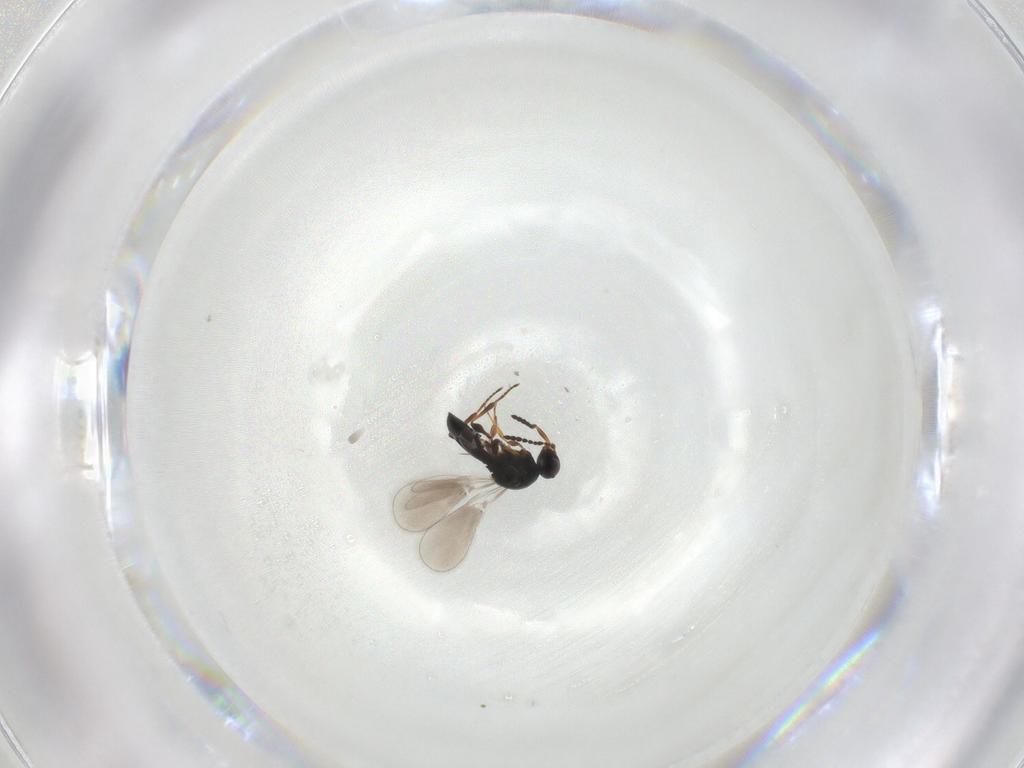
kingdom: Animalia
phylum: Arthropoda
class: Insecta
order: Hymenoptera
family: Platygastridae
